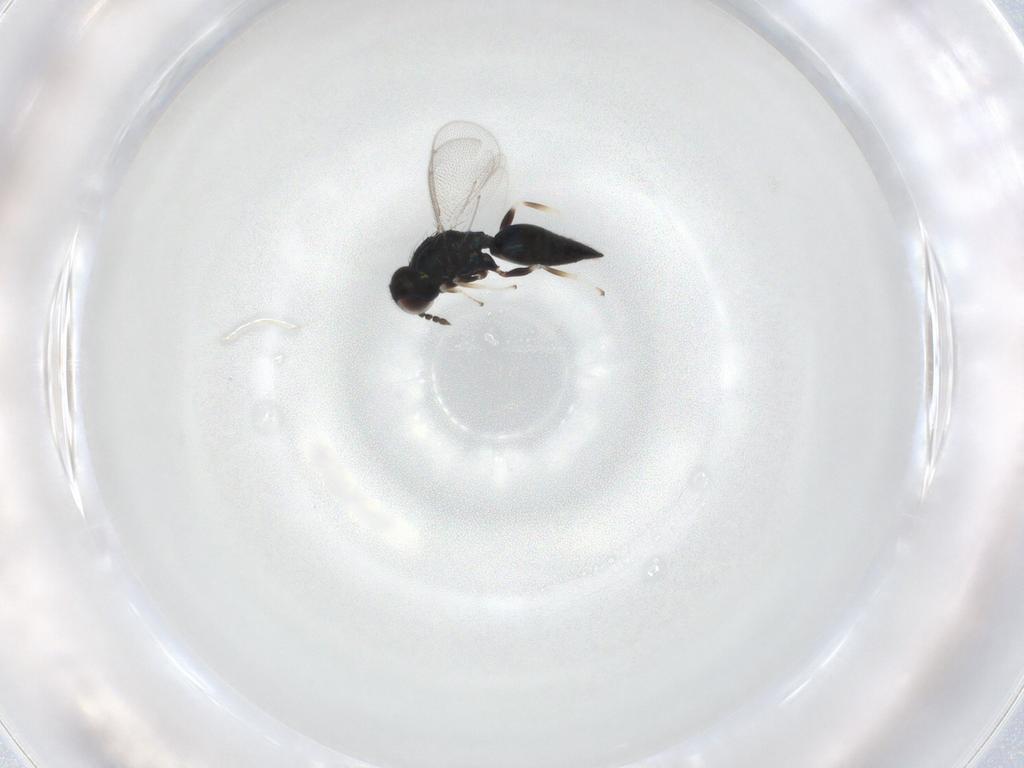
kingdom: Animalia
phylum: Arthropoda
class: Insecta
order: Hymenoptera
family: Eulophidae
